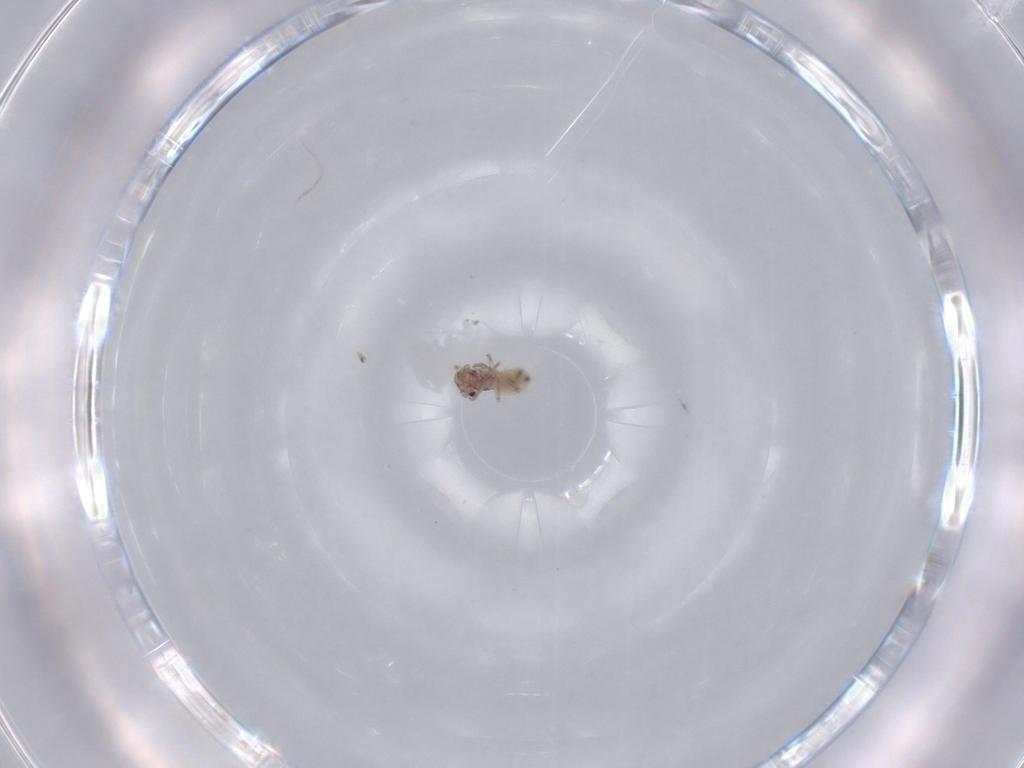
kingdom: Animalia
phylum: Arthropoda
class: Insecta
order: Psocodea
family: Lepidopsocidae
